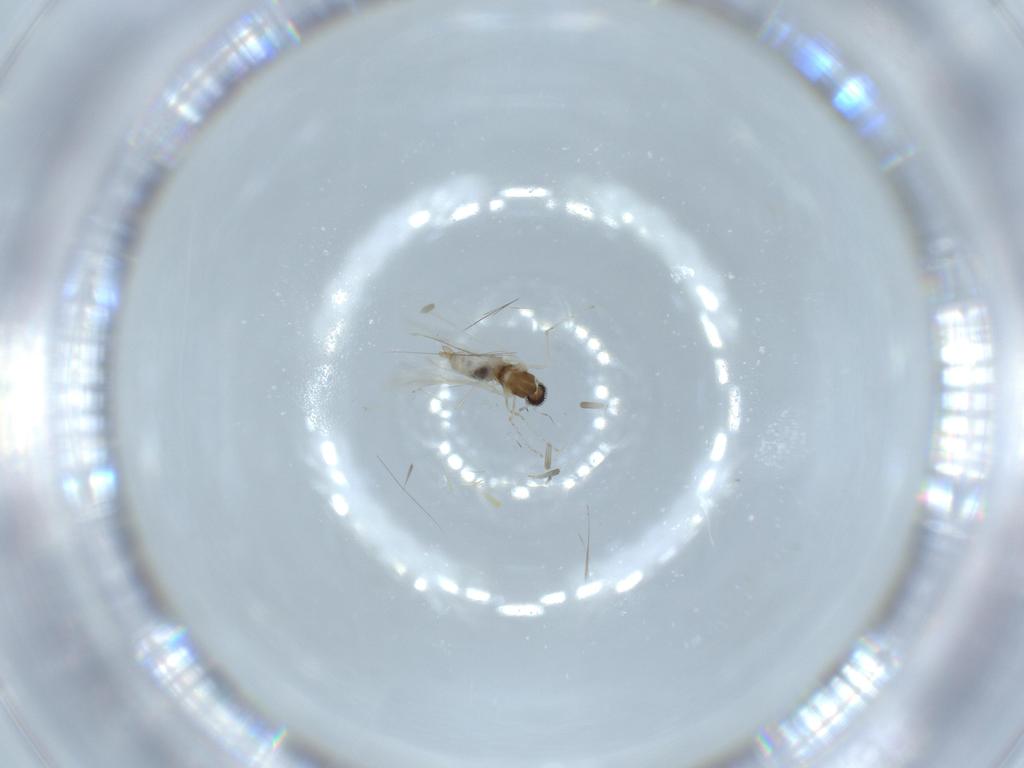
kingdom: Animalia
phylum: Arthropoda
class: Insecta
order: Diptera
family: Cecidomyiidae
